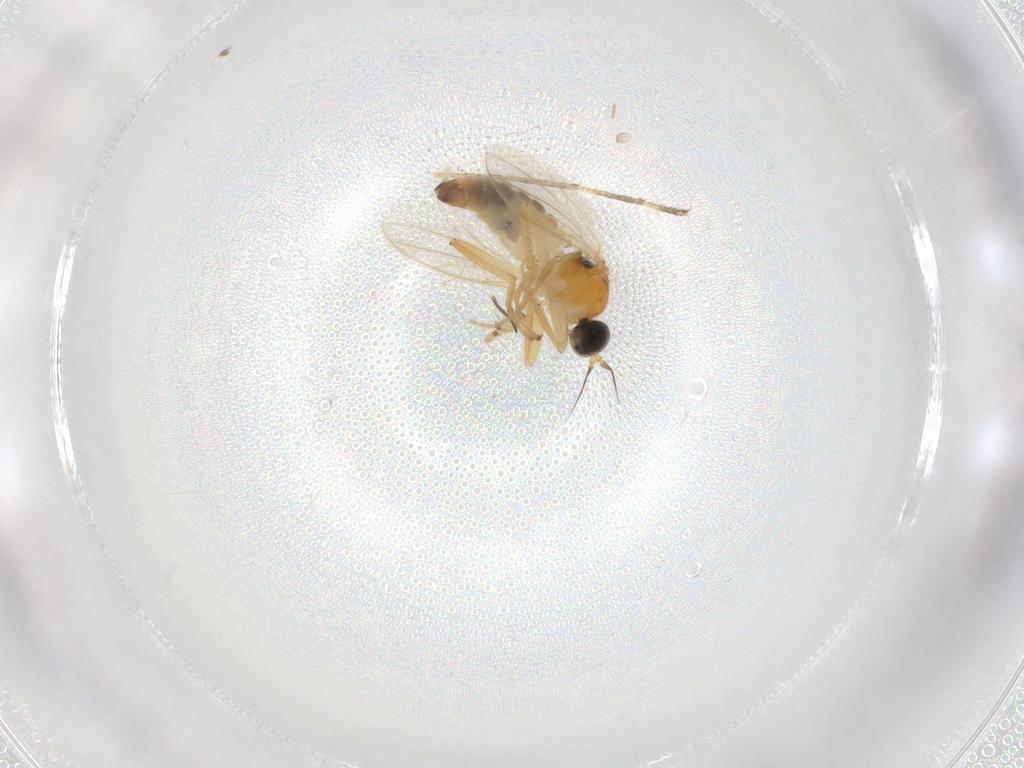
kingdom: Animalia
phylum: Arthropoda
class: Insecta
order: Diptera
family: Hybotidae
